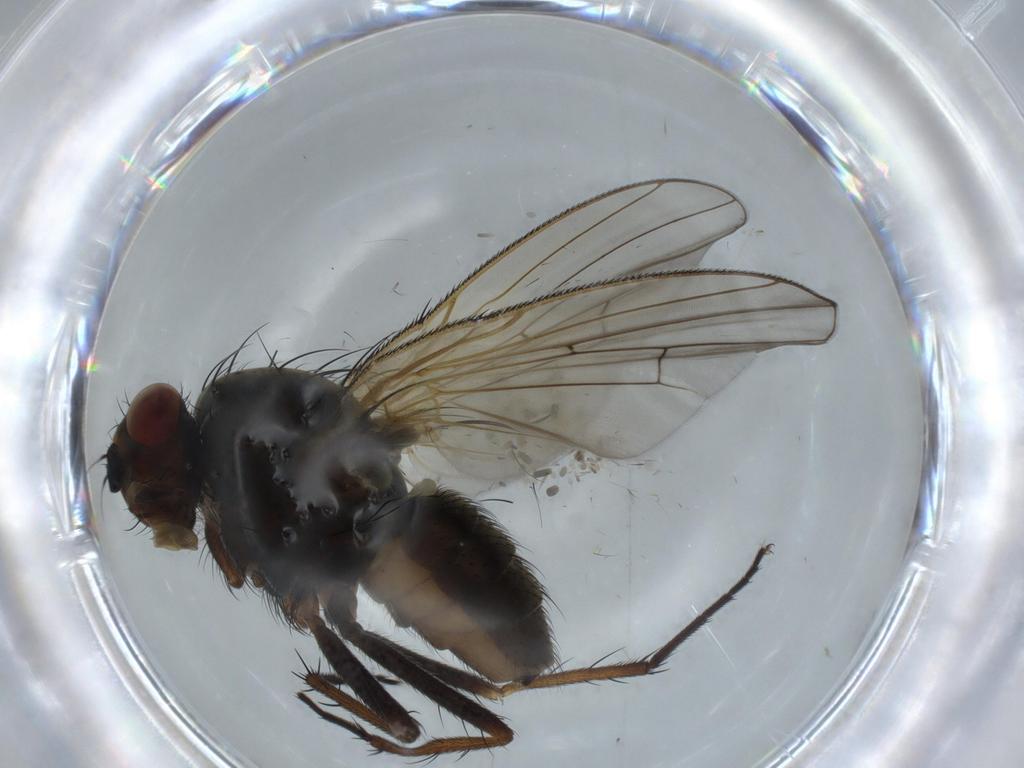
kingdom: Animalia
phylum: Arthropoda
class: Insecta
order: Diptera
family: Anthomyiidae
